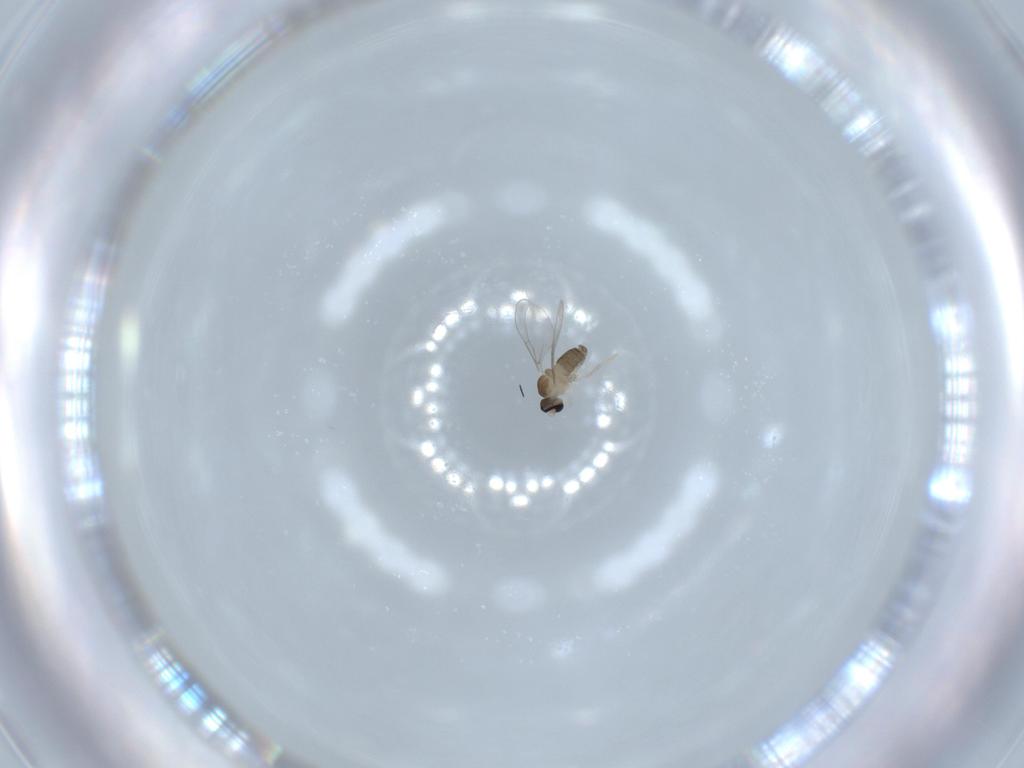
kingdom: Animalia
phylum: Arthropoda
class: Insecta
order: Diptera
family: Cecidomyiidae
